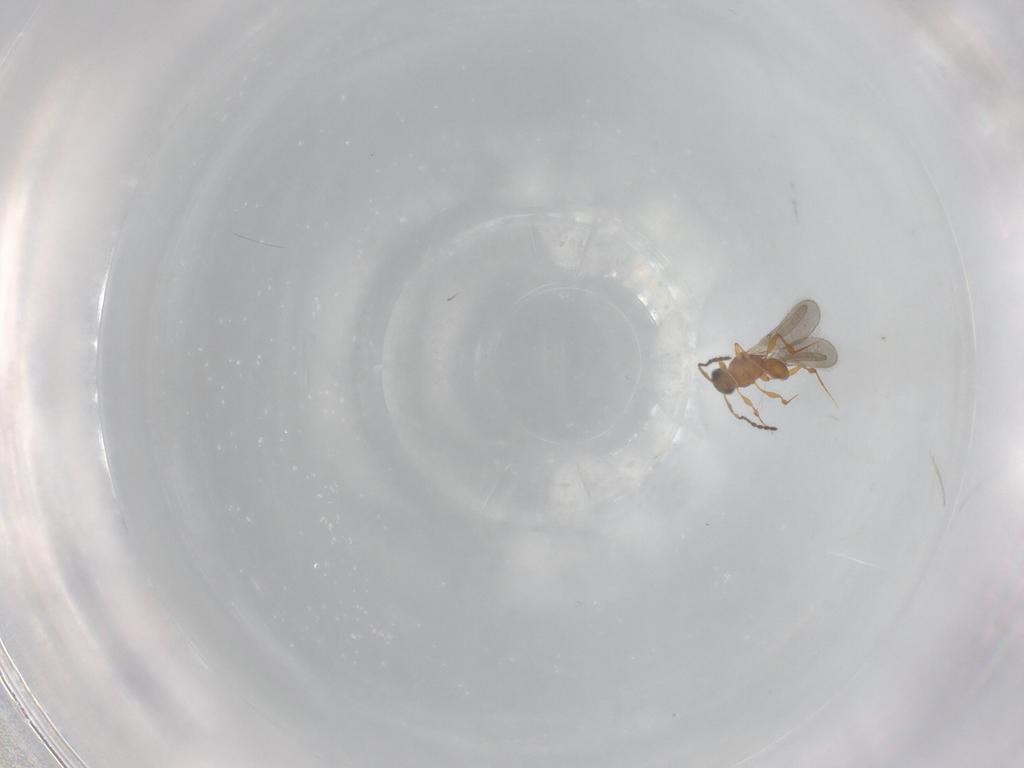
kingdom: Animalia
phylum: Arthropoda
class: Insecta
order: Hymenoptera
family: Platygastridae
